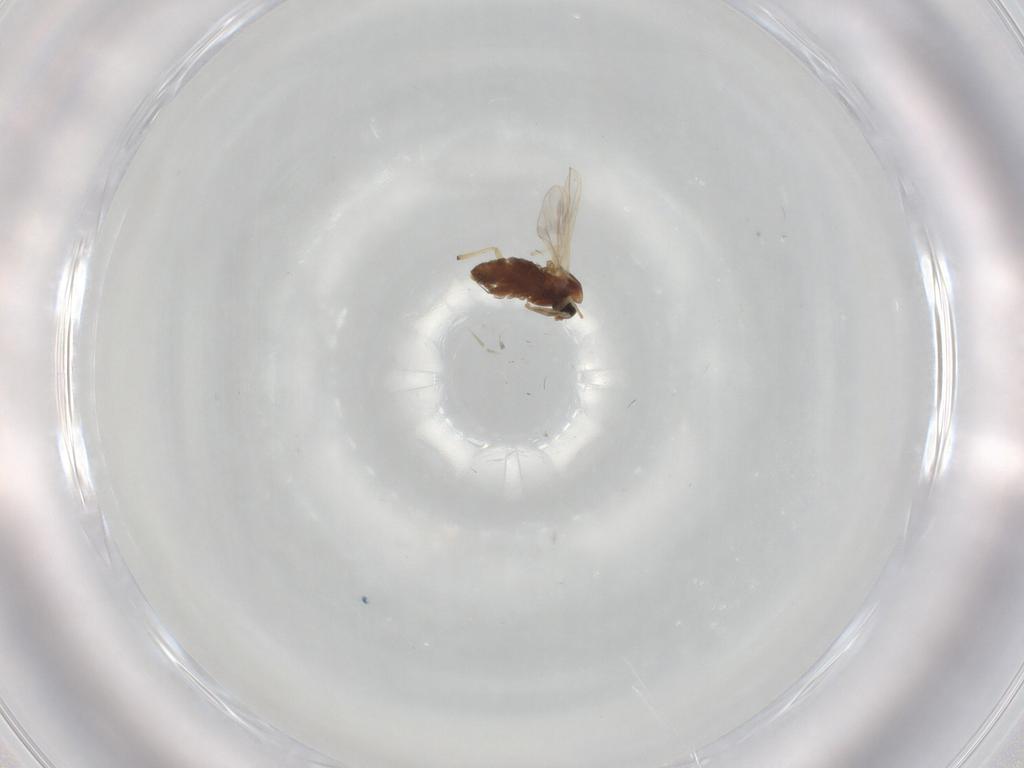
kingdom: Animalia
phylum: Arthropoda
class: Insecta
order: Diptera
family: Chironomidae
